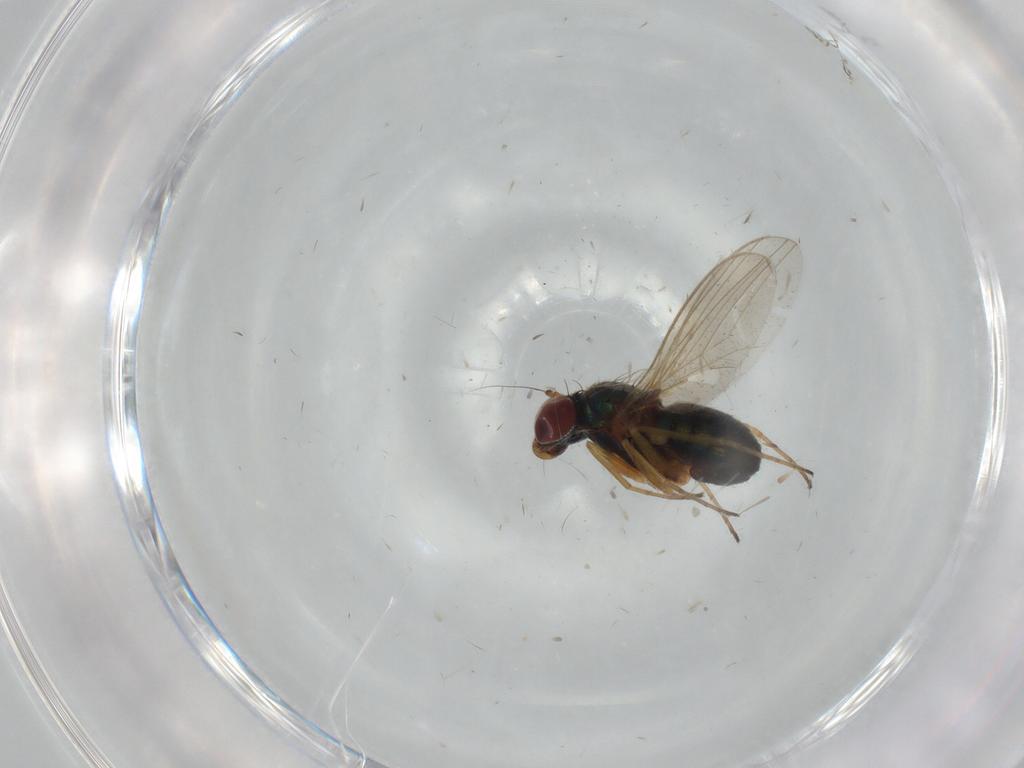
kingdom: Animalia
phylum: Arthropoda
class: Insecta
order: Diptera
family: Dolichopodidae
